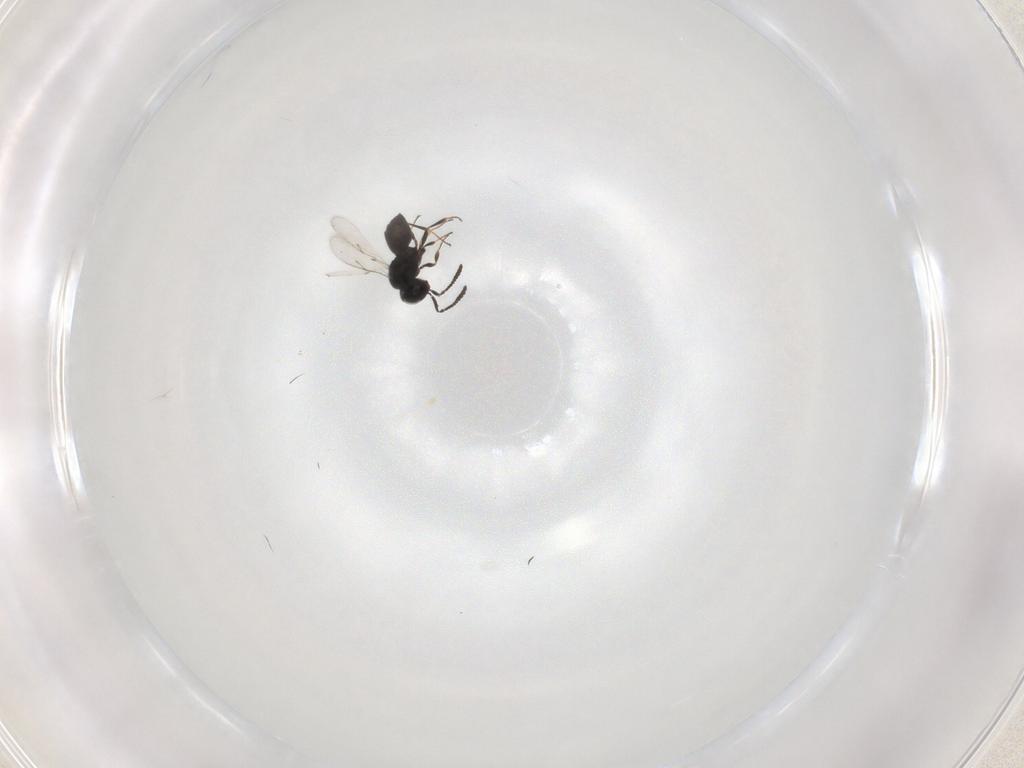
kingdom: Animalia
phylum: Arthropoda
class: Insecta
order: Hymenoptera
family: Scelionidae
